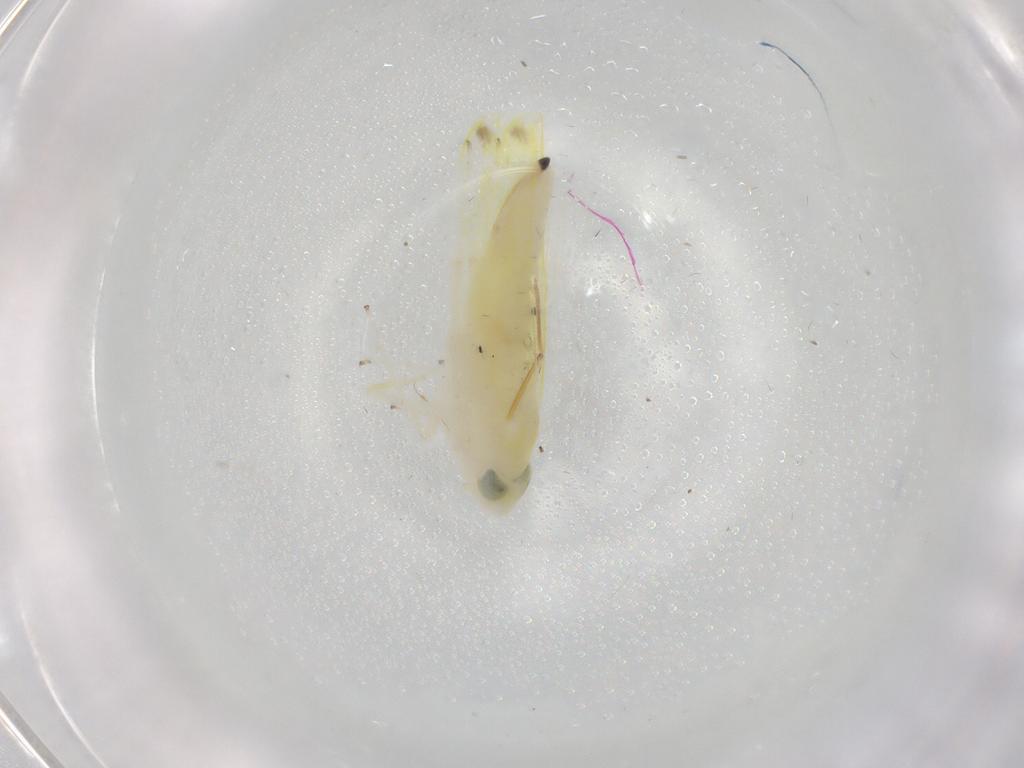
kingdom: Animalia
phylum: Arthropoda
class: Insecta
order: Hemiptera
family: Cicadellidae
